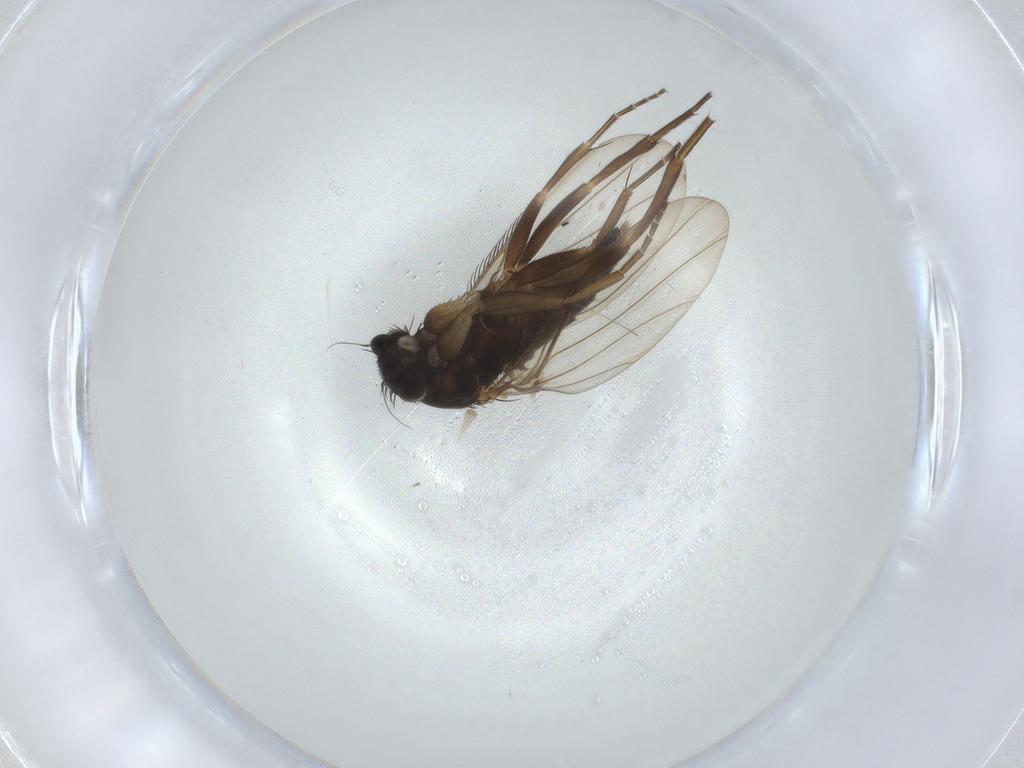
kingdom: Animalia
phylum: Arthropoda
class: Insecta
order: Diptera
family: Phoridae
